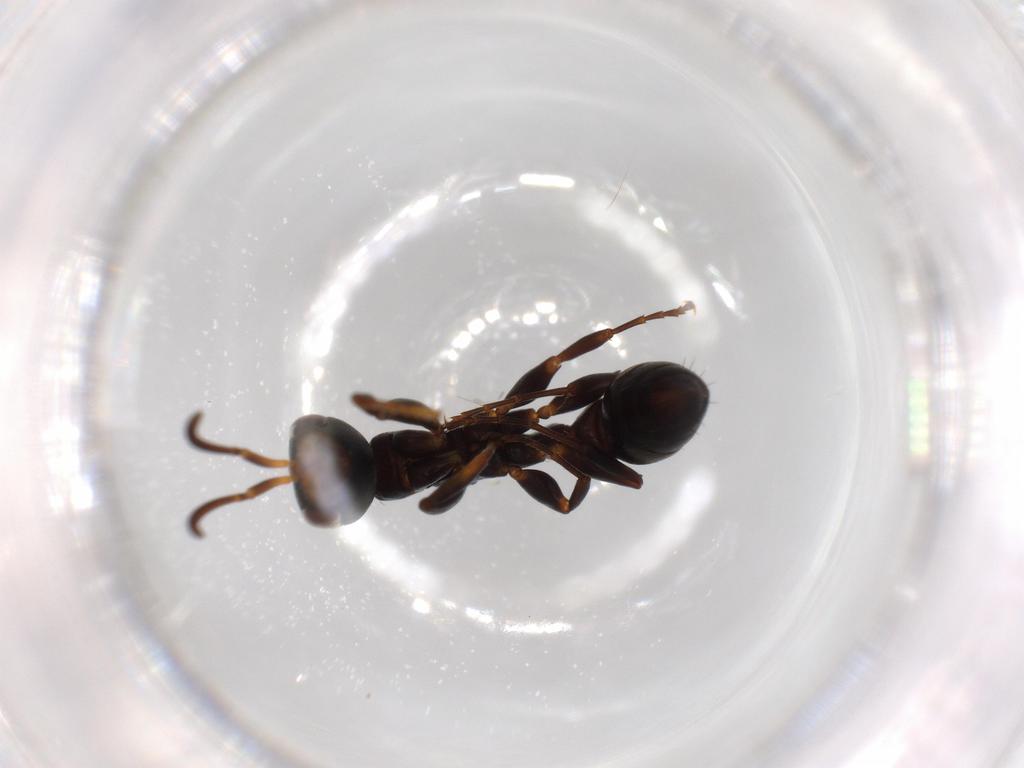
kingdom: Animalia
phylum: Arthropoda
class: Insecta
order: Hymenoptera
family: Formicidae
